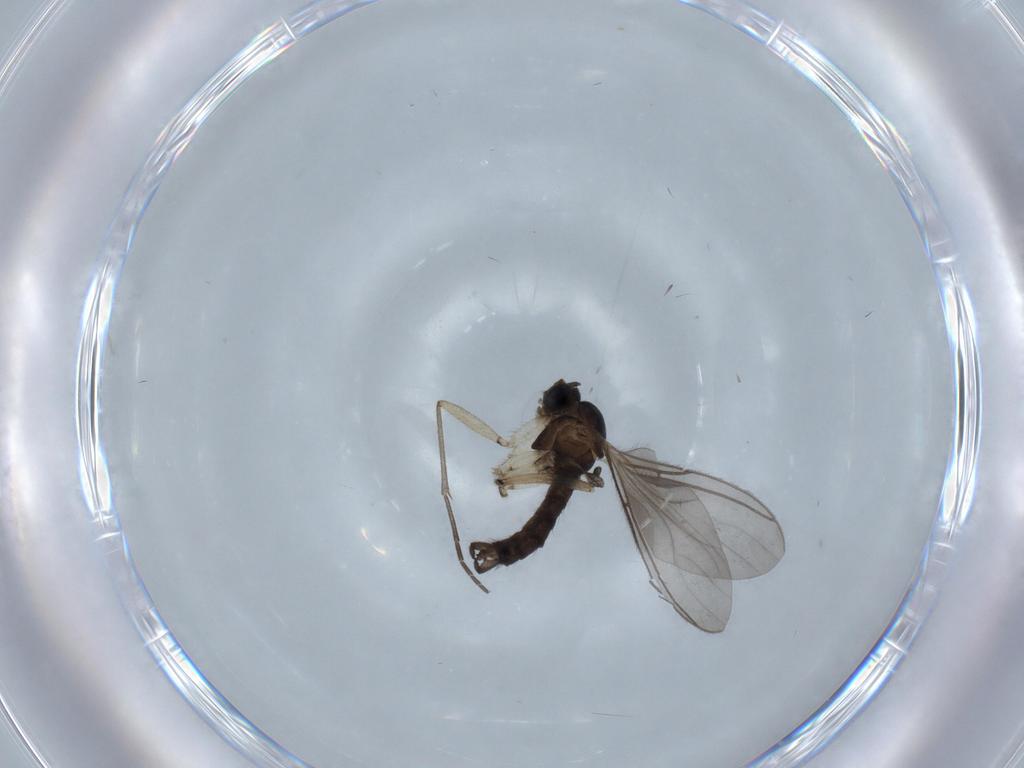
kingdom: Animalia
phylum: Arthropoda
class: Insecta
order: Diptera
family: Sciaridae
